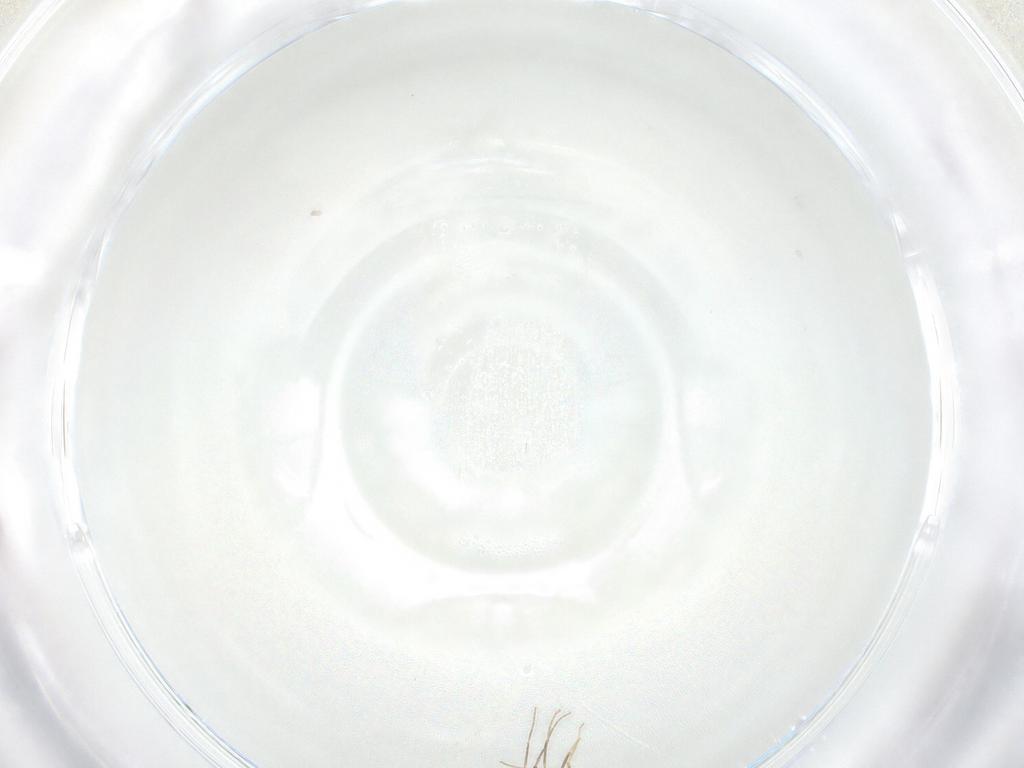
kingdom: Animalia
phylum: Arthropoda
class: Insecta
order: Diptera
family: Chironomidae
